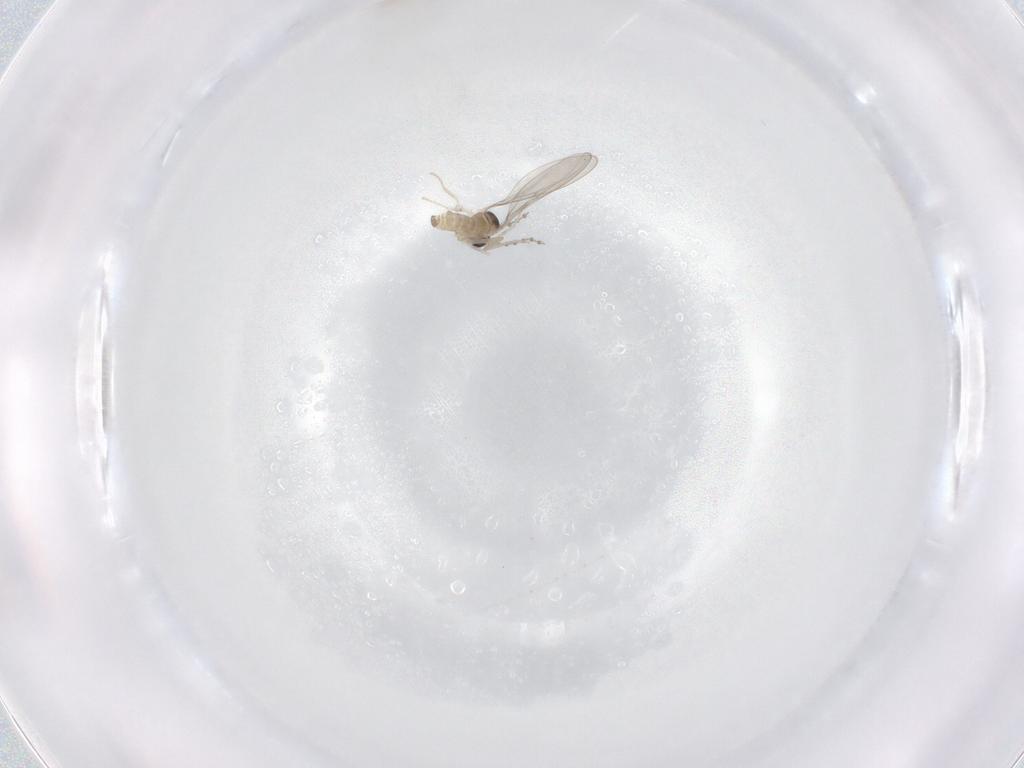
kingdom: Animalia
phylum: Arthropoda
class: Insecta
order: Diptera
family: Cecidomyiidae
